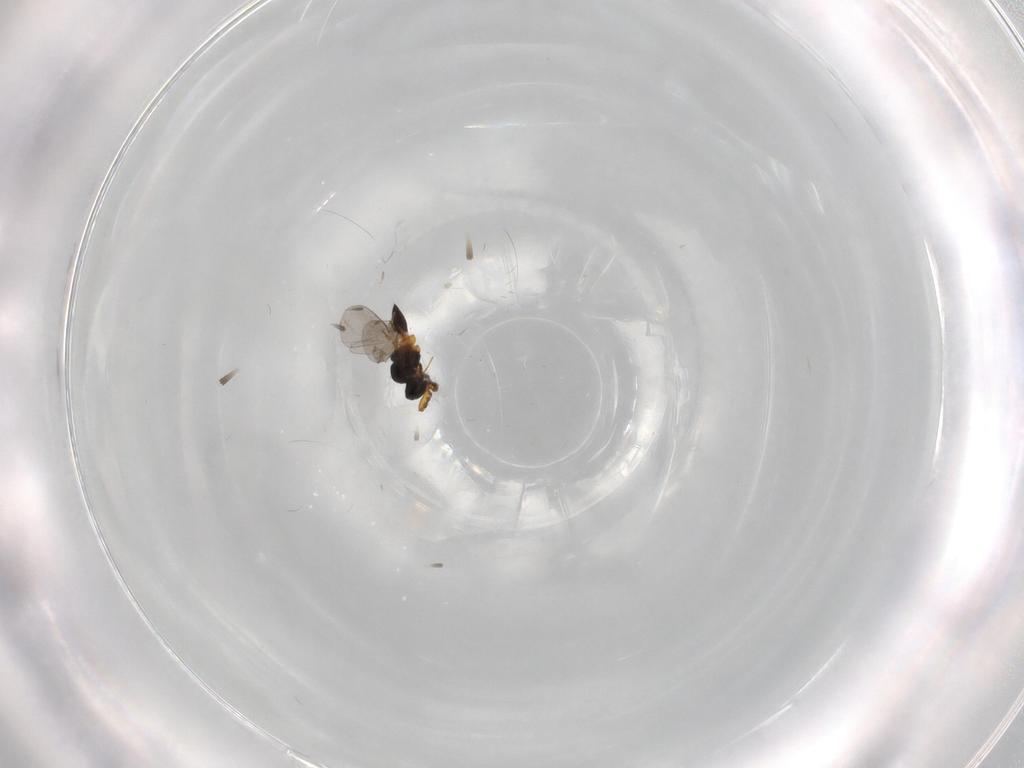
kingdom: Animalia
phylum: Arthropoda
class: Insecta
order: Hymenoptera
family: Platygastridae
